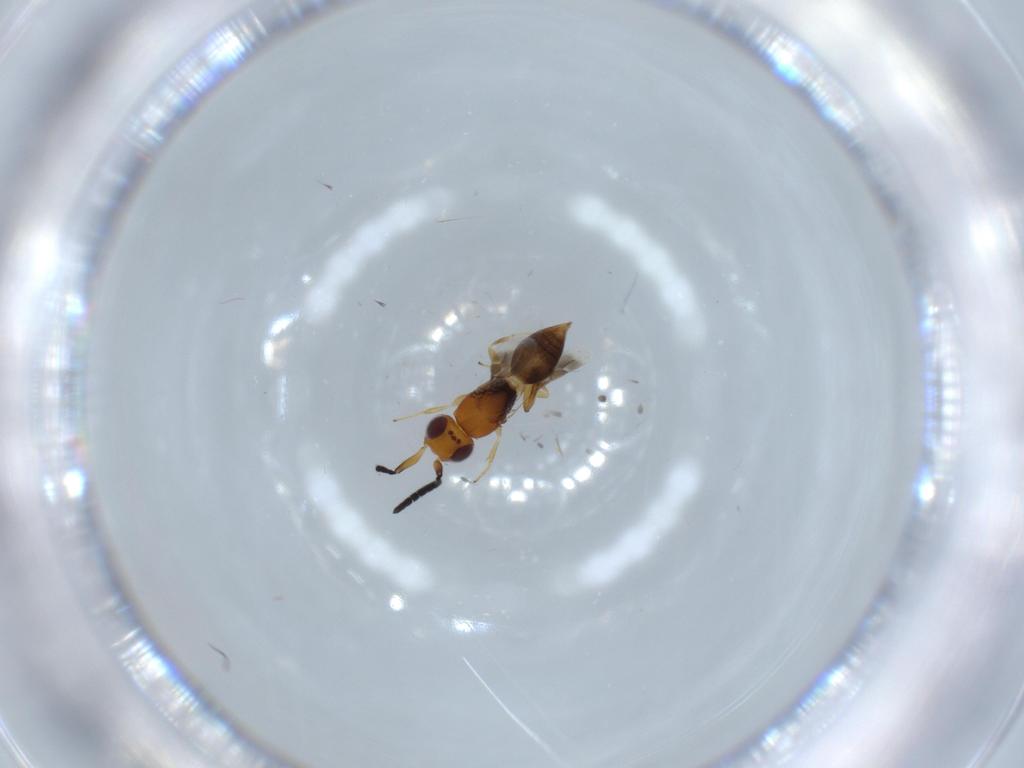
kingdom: Animalia
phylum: Arthropoda
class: Insecta
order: Hymenoptera
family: Megaspilidae
